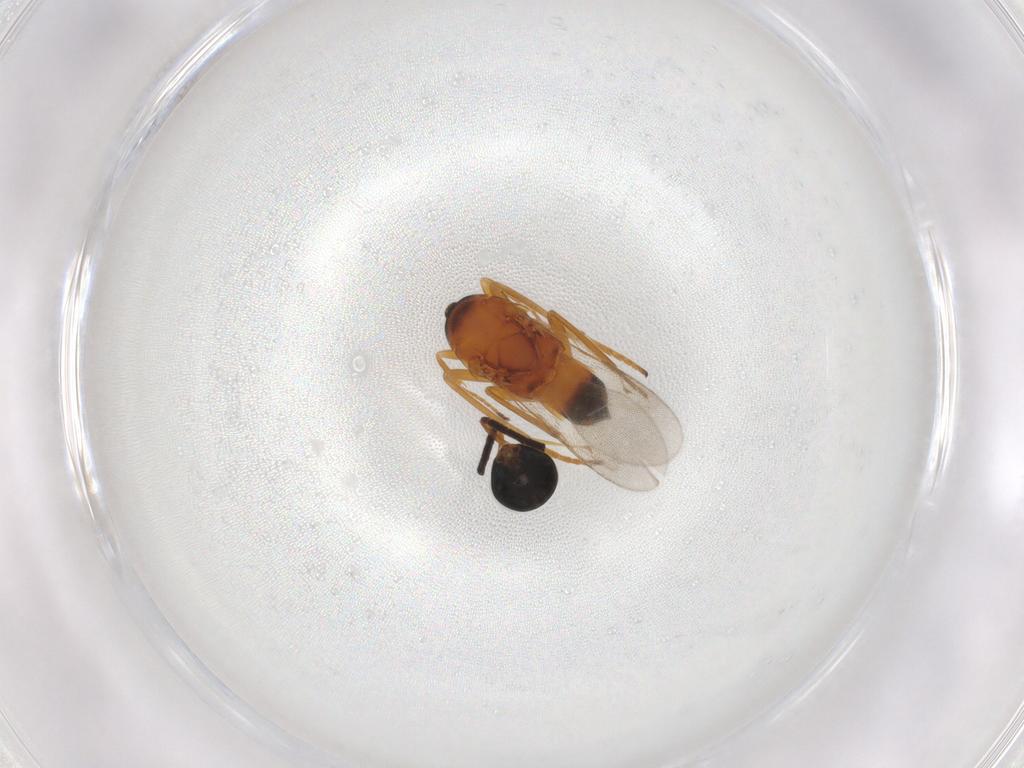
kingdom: Animalia
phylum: Arthropoda
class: Insecta
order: Hymenoptera
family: Encyrtidae
